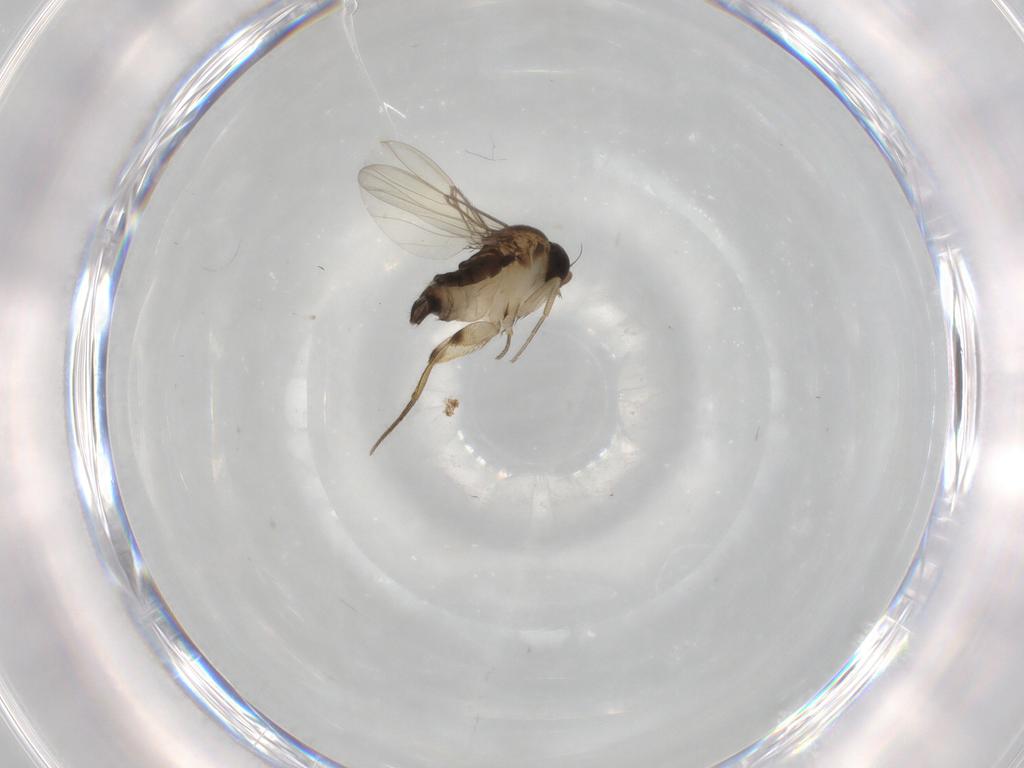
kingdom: Animalia
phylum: Arthropoda
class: Insecta
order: Diptera
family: Phoridae
